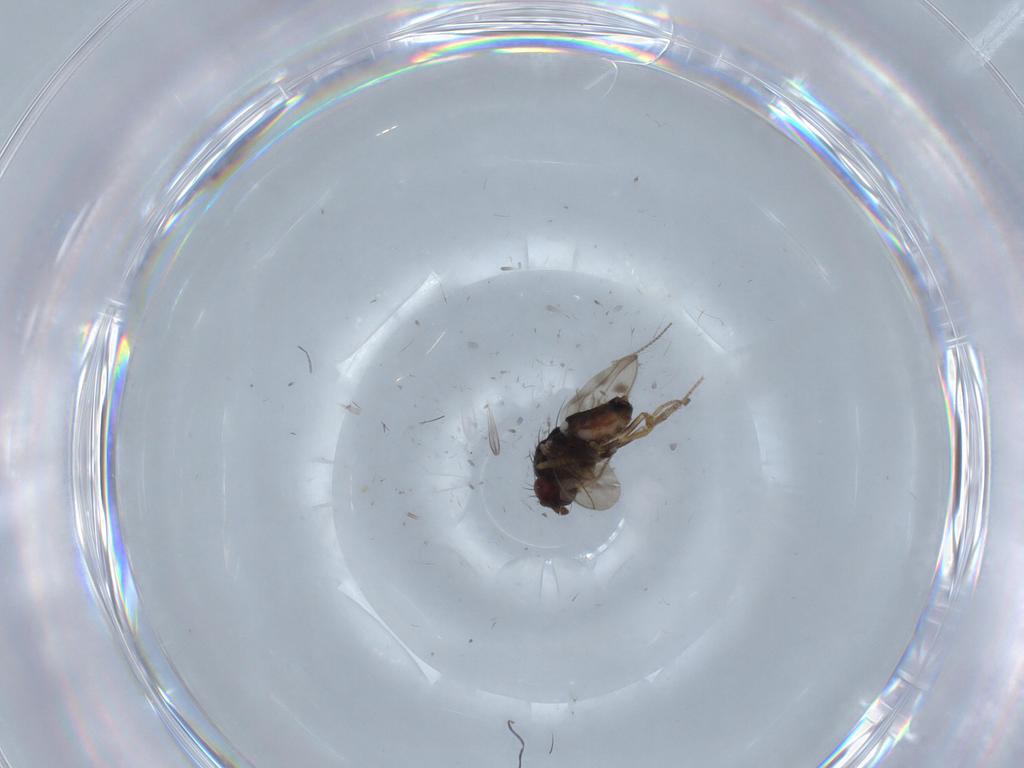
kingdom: Animalia
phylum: Arthropoda
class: Insecta
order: Diptera
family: Sphaeroceridae
